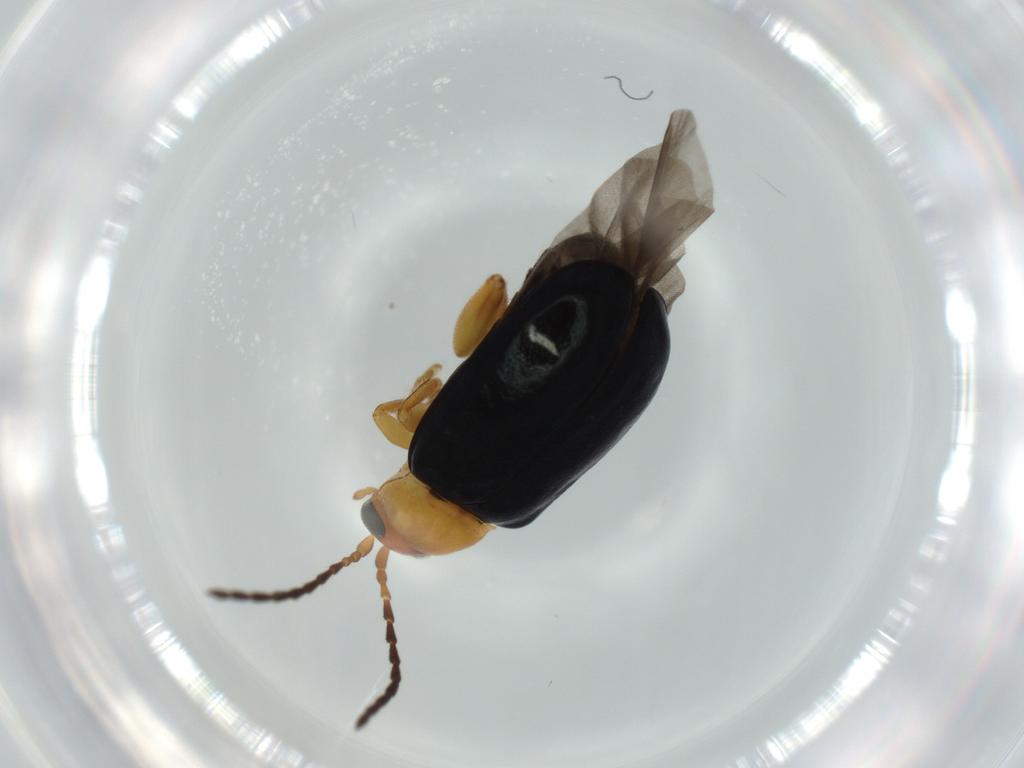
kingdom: Animalia
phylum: Arthropoda
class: Insecta
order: Coleoptera
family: Chrysomelidae
